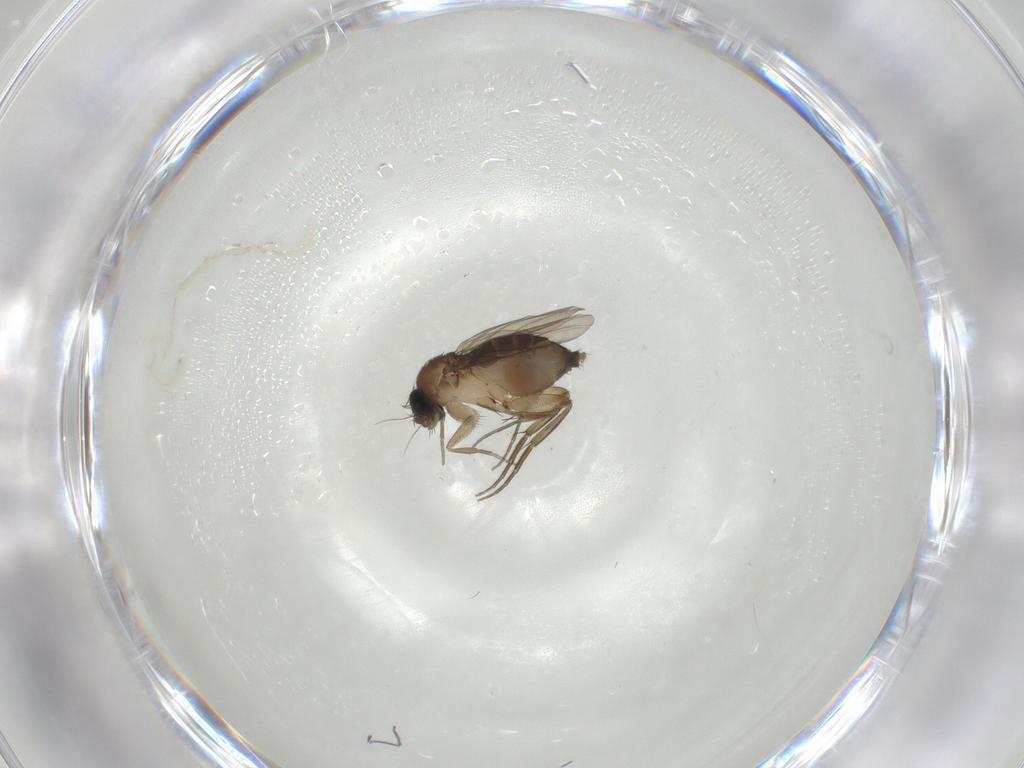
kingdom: Animalia
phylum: Arthropoda
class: Insecta
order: Diptera
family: Phoridae
